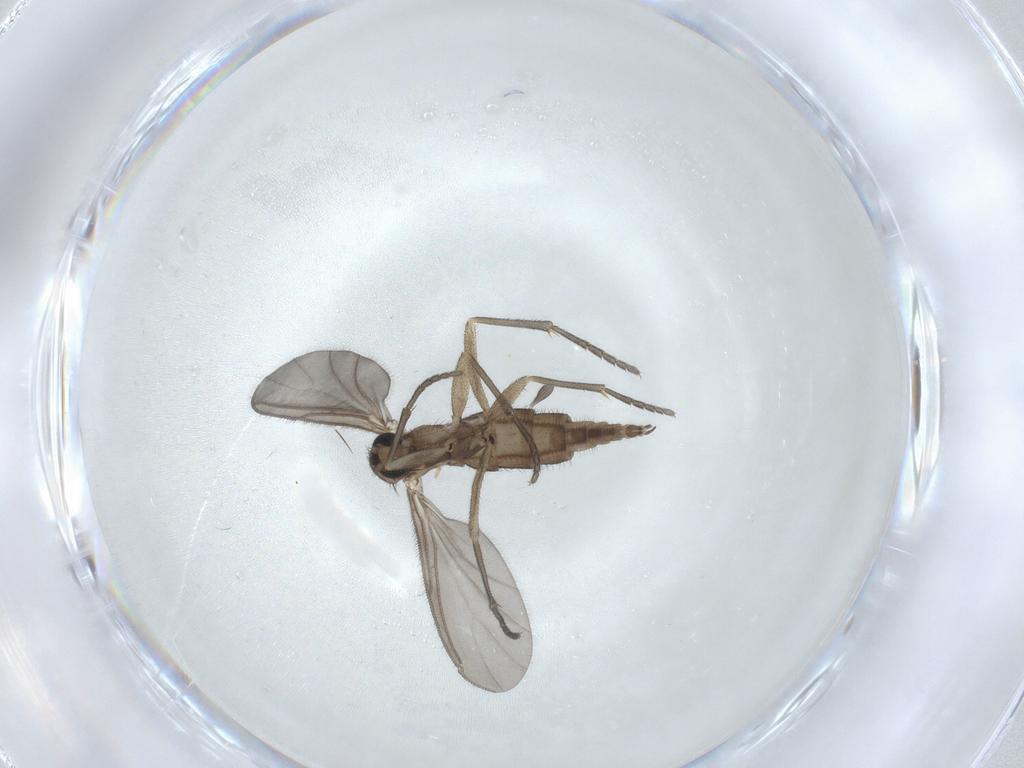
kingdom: Animalia
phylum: Arthropoda
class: Insecta
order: Diptera
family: Sciaridae
